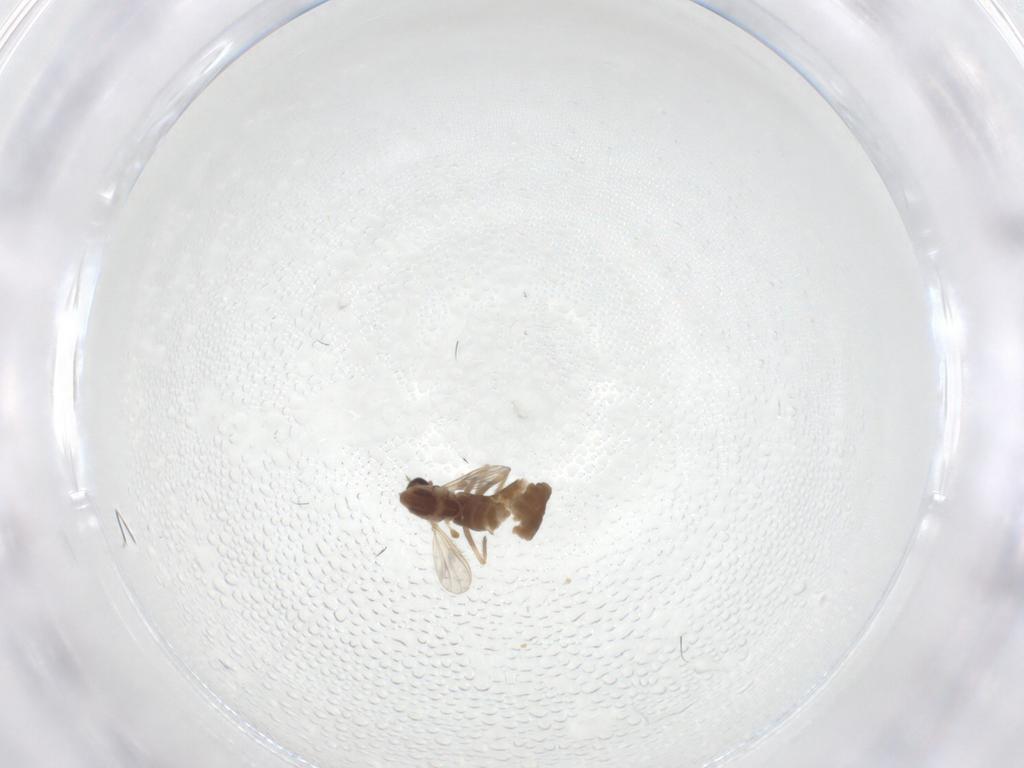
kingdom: Animalia
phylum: Arthropoda
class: Insecta
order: Diptera
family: Chironomidae
